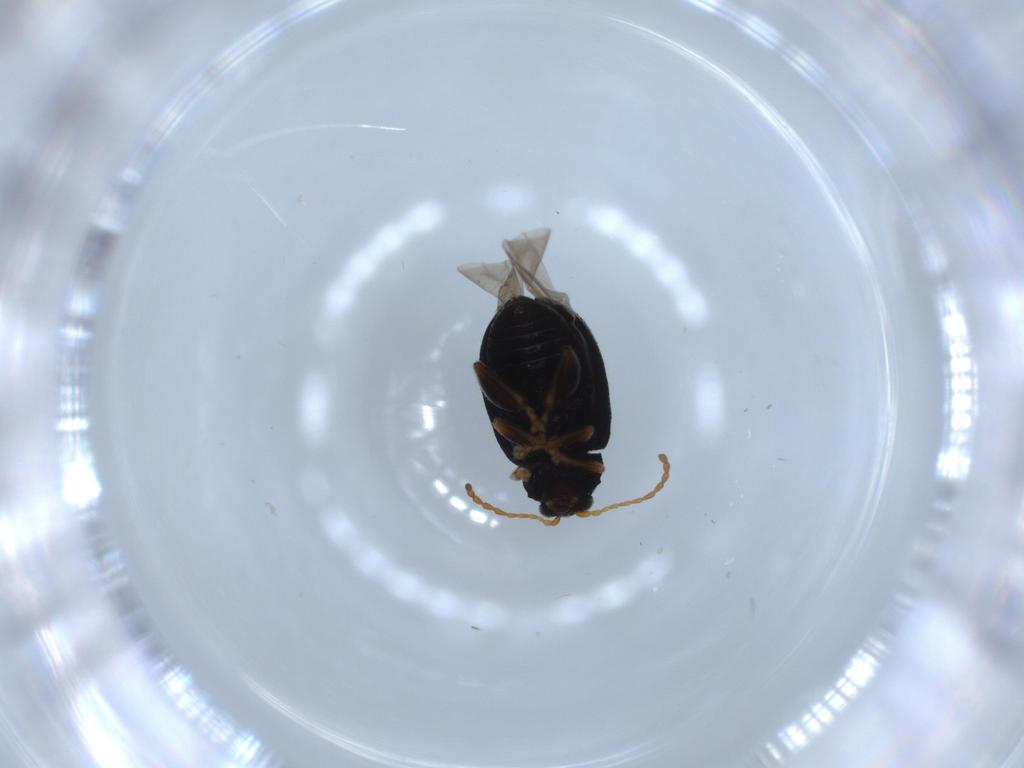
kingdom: Animalia
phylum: Arthropoda
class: Insecta
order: Coleoptera
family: Chrysomelidae
